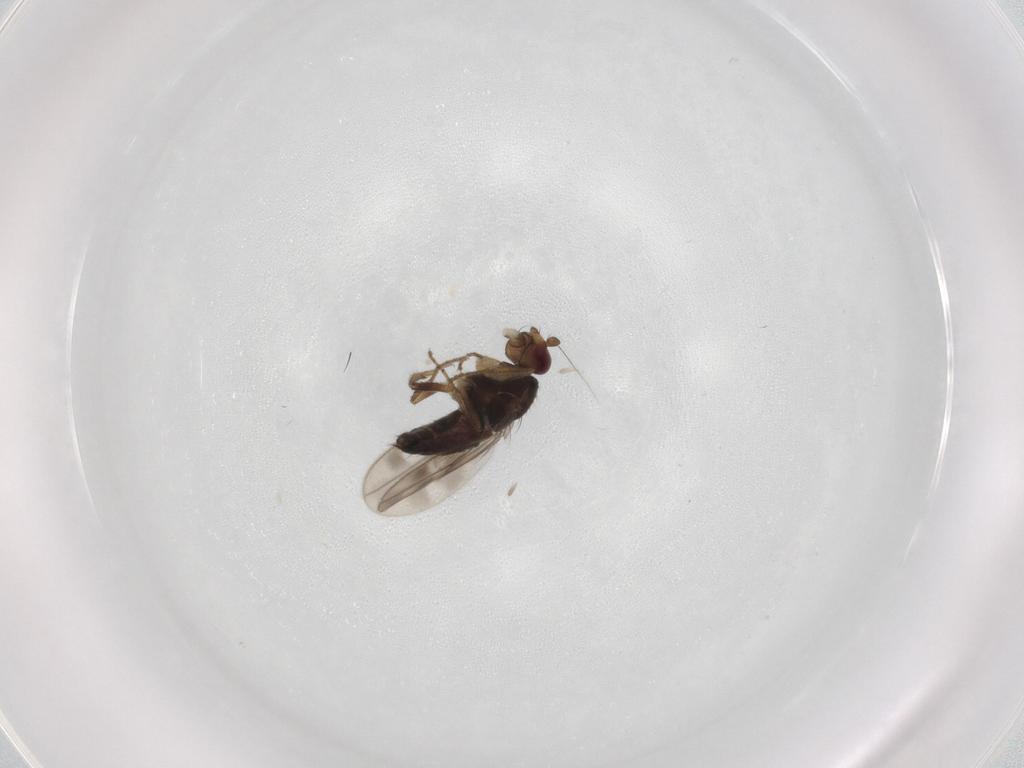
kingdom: Animalia
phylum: Arthropoda
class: Insecta
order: Diptera
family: Sphaeroceridae
